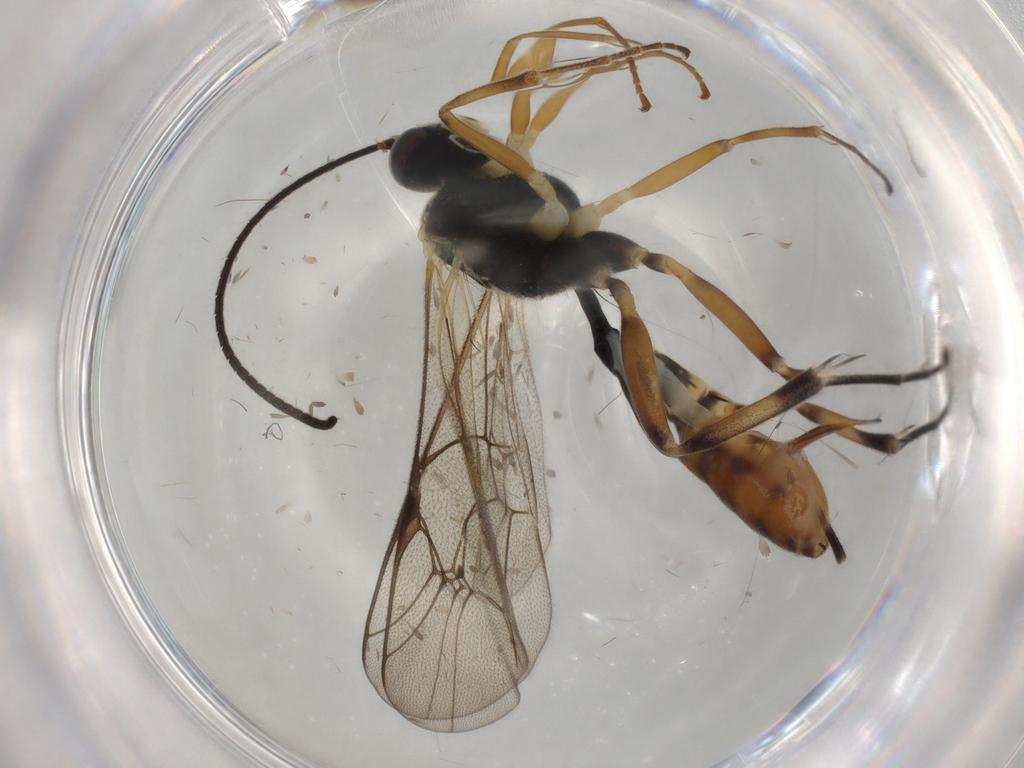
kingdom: Animalia
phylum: Arthropoda
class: Insecta
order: Hymenoptera
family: Ichneumonidae
